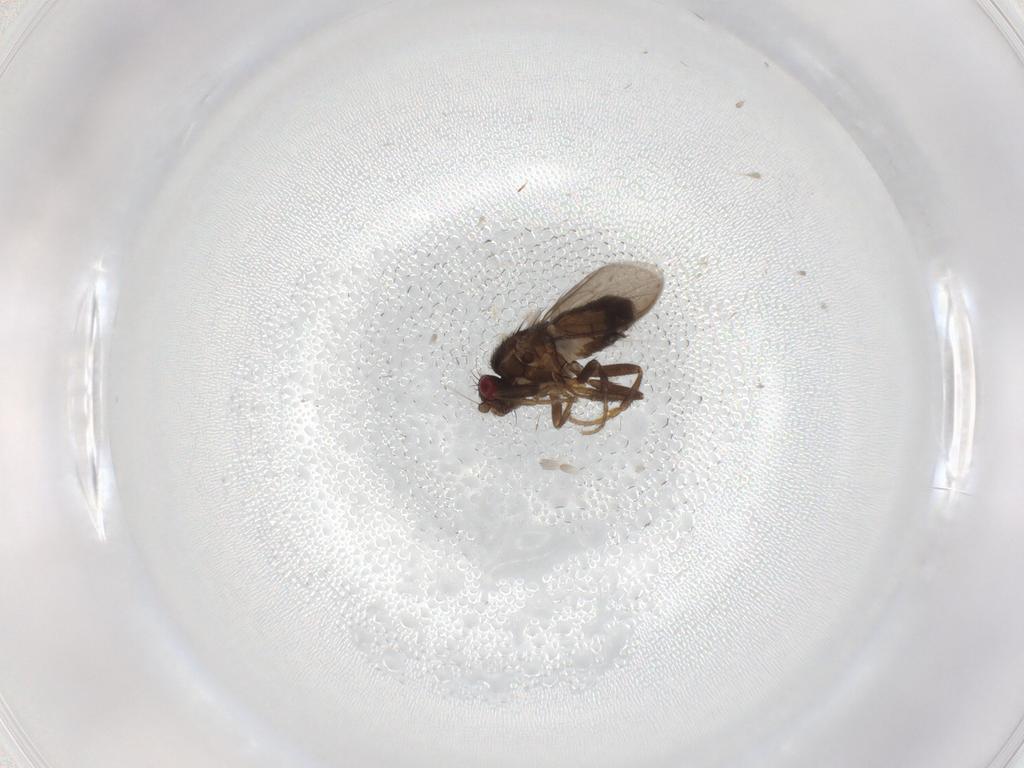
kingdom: Animalia
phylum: Arthropoda
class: Insecta
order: Diptera
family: Sphaeroceridae
